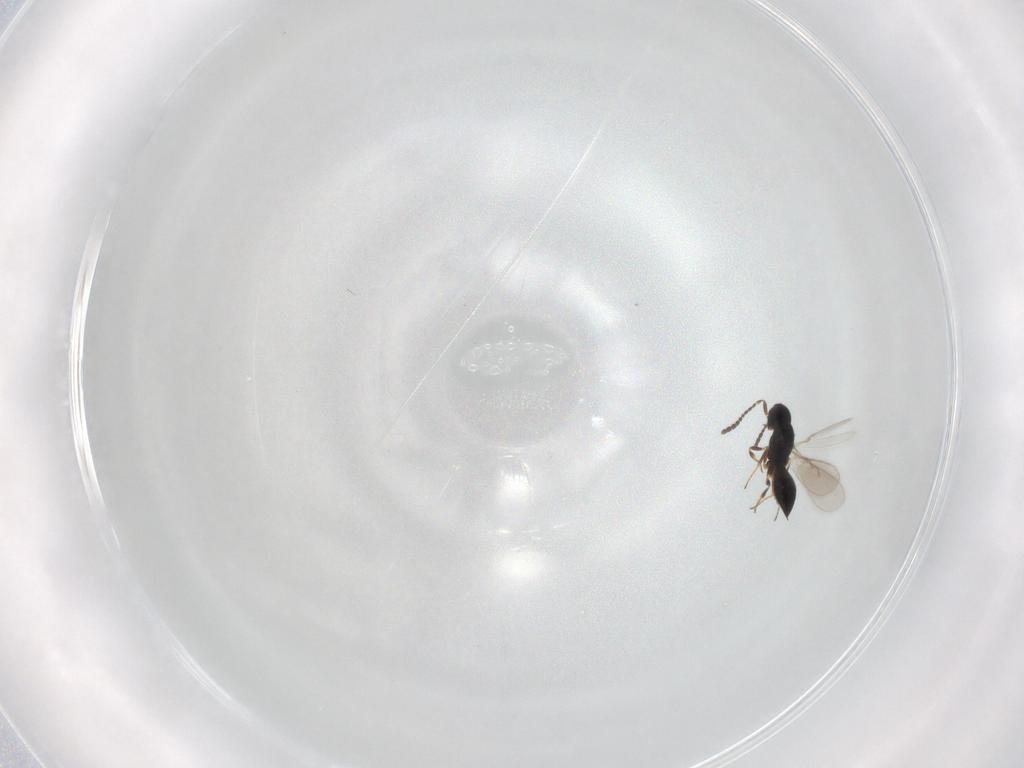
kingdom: Animalia
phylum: Arthropoda
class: Insecta
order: Hymenoptera
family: Scelionidae
